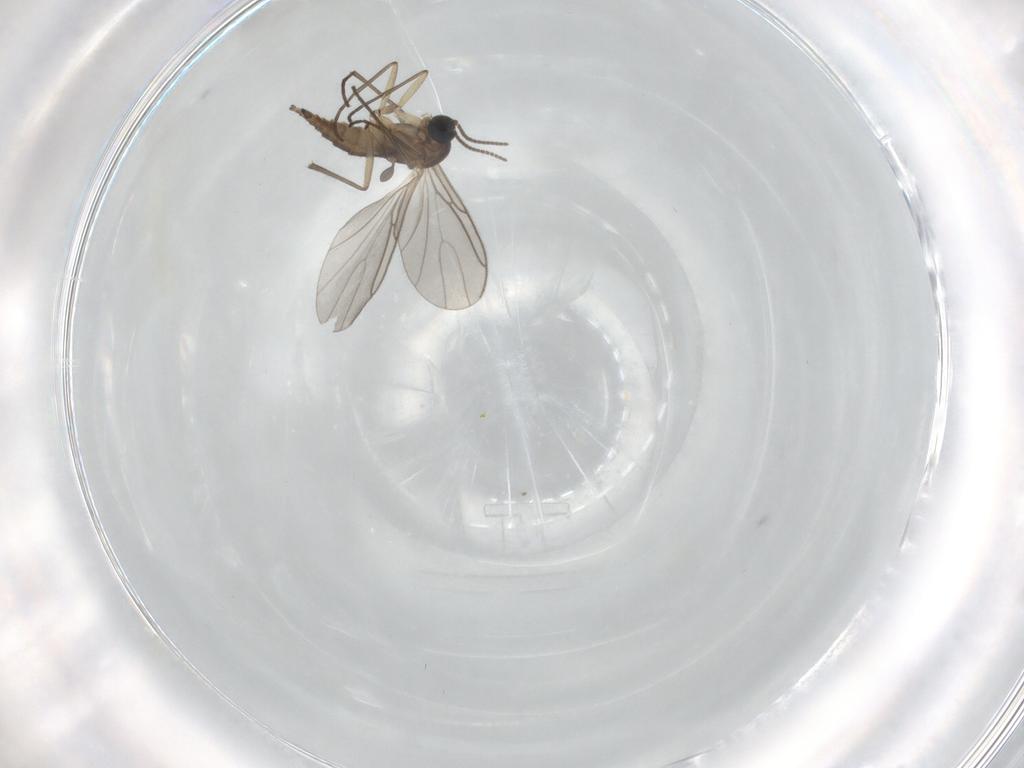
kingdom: Animalia
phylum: Arthropoda
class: Insecta
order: Diptera
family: Sciaridae
